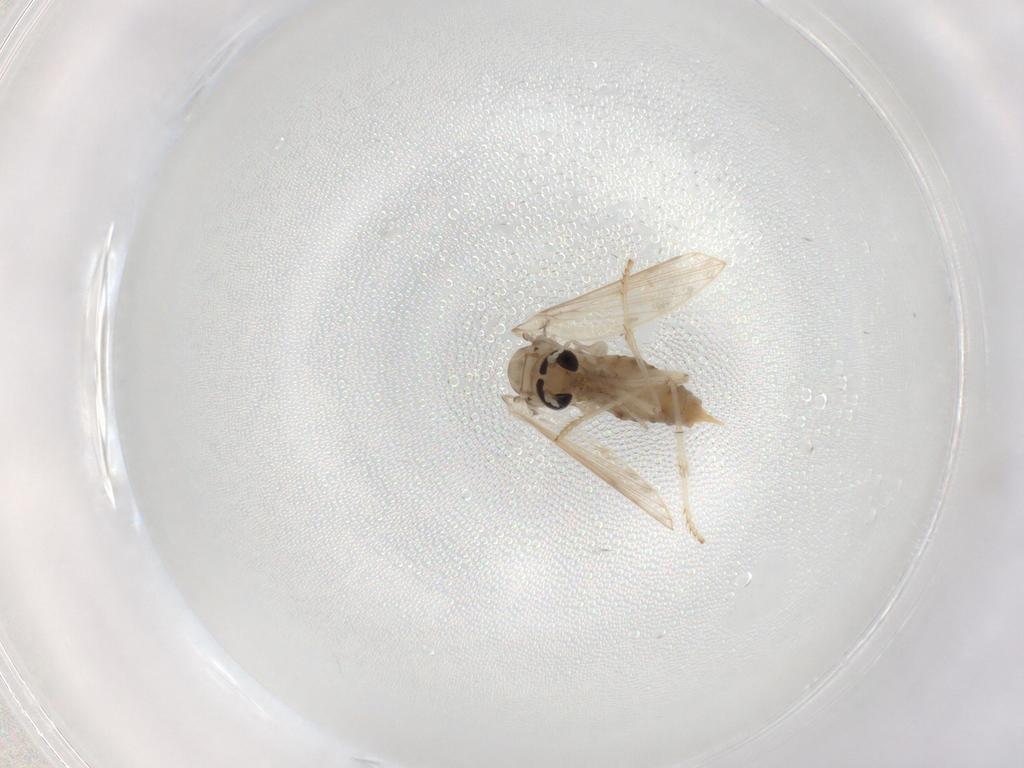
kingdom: Animalia
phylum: Arthropoda
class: Insecta
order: Diptera
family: Psychodidae
